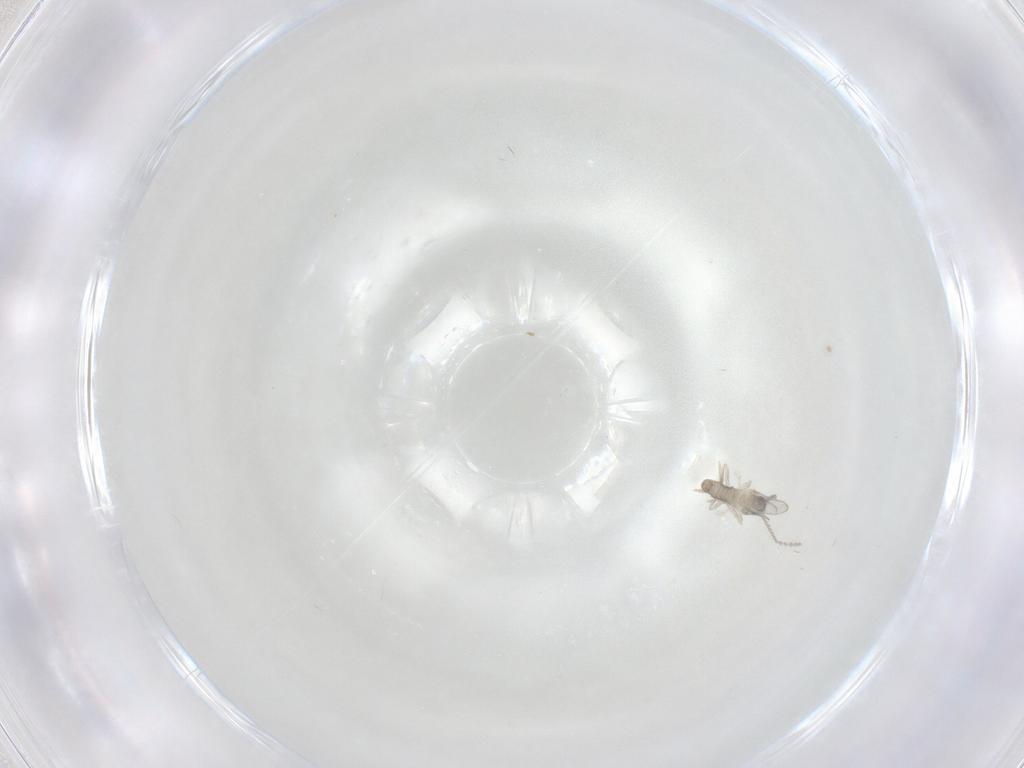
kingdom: Animalia
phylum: Arthropoda
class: Insecta
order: Diptera
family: Cecidomyiidae
